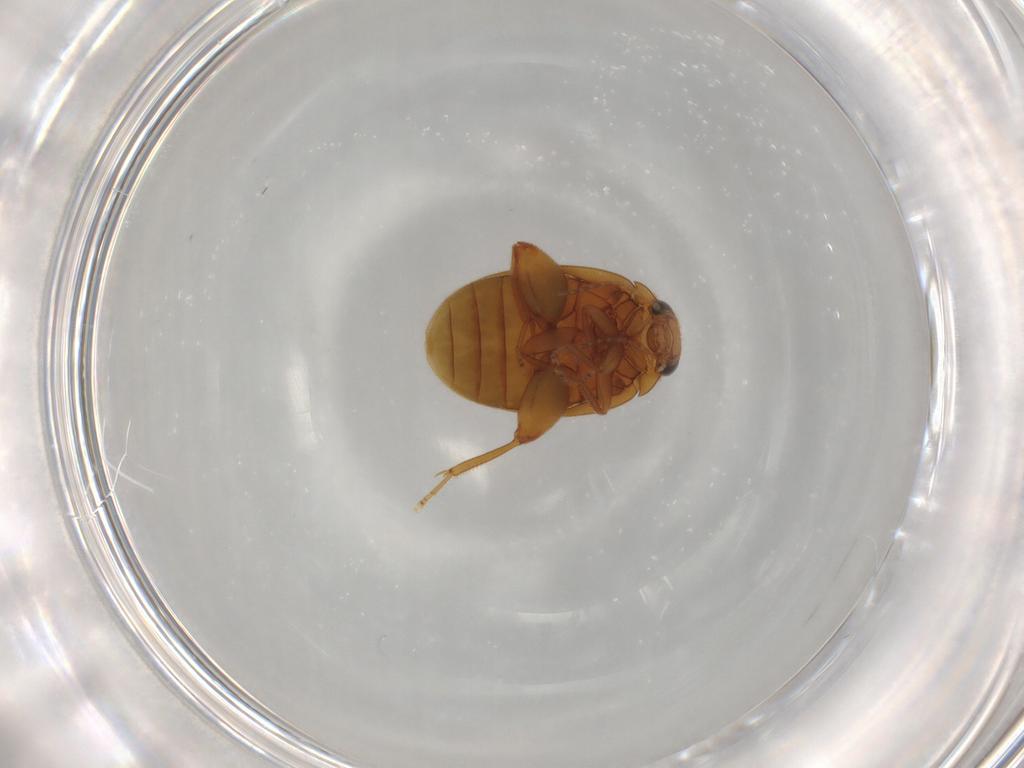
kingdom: Animalia
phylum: Arthropoda
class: Insecta
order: Coleoptera
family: Scirtidae
